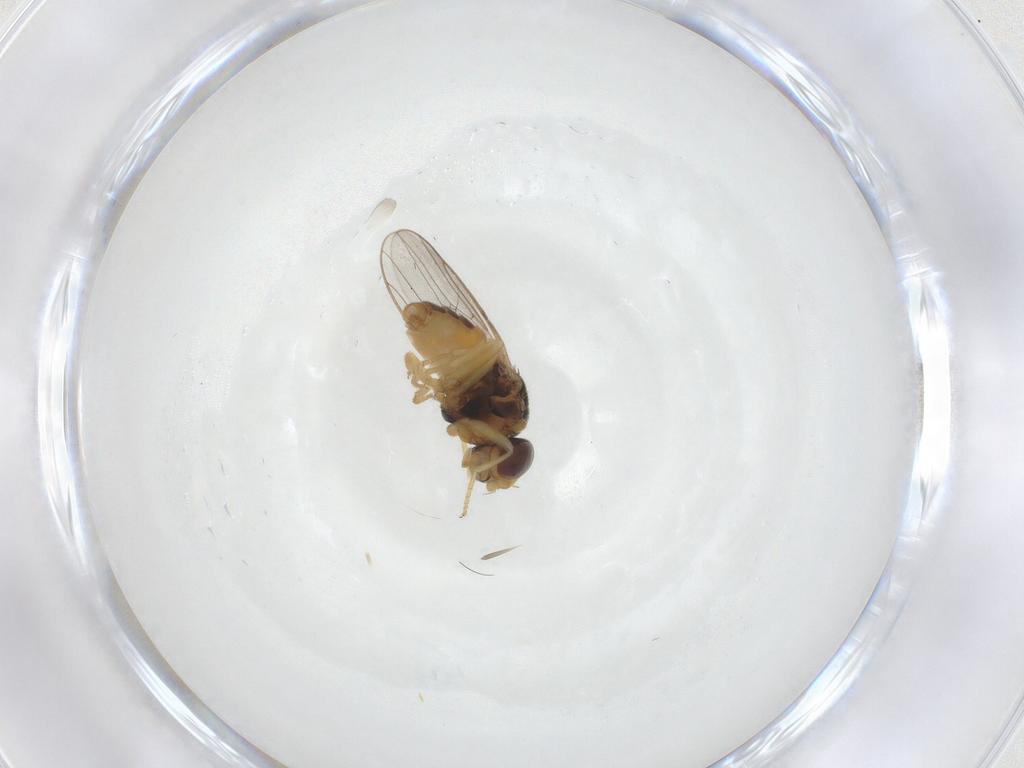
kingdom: Animalia
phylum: Arthropoda
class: Insecta
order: Diptera
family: Chloropidae
